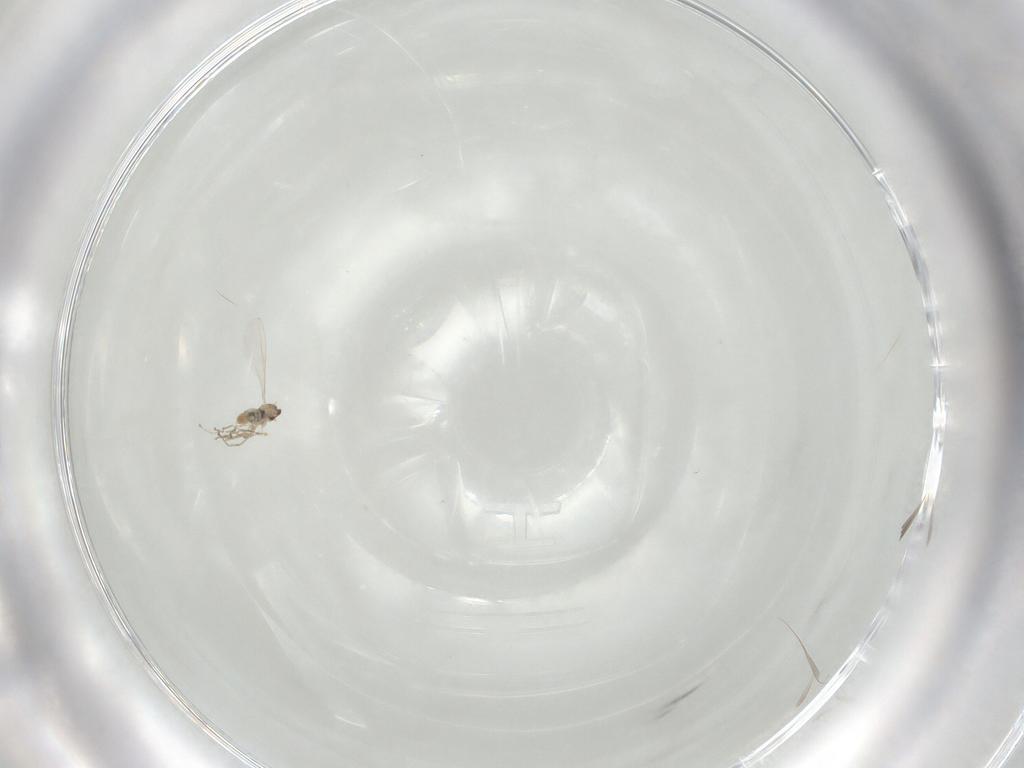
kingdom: Animalia
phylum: Arthropoda
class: Insecta
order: Diptera
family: Cecidomyiidae
